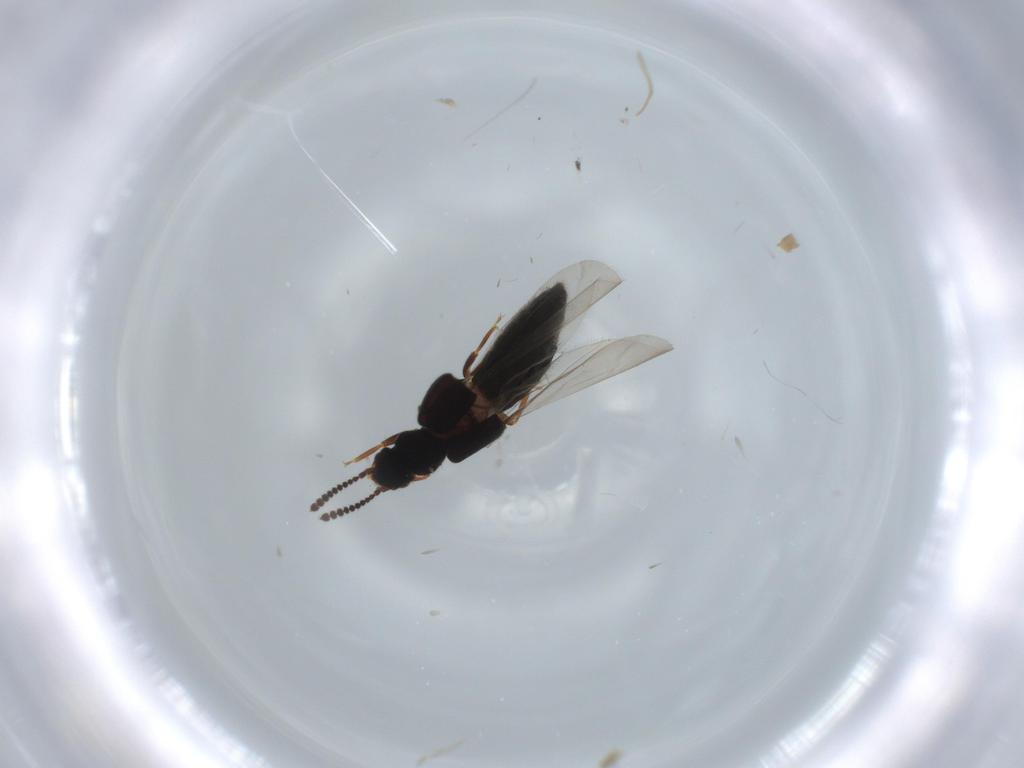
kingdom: Animalia
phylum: Arthropoda
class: Insecta
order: Coleoptera
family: Staphylinidae
